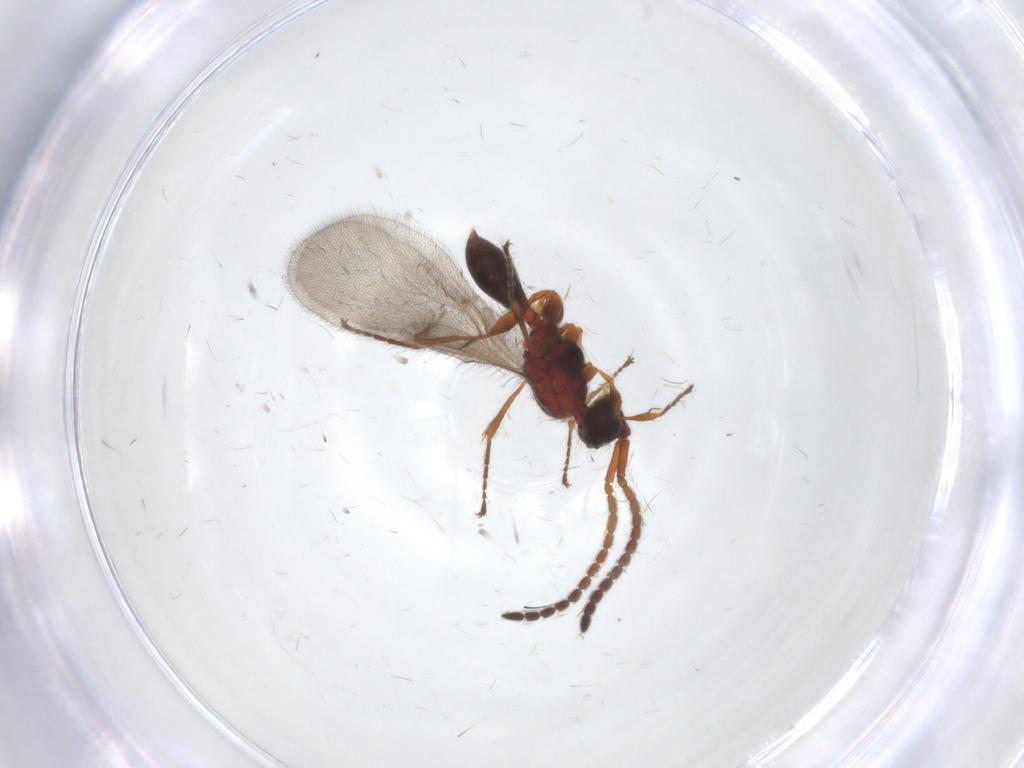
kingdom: Animalia
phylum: Arthropoda
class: Insecta
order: Hymenoptera
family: Diapriidae
